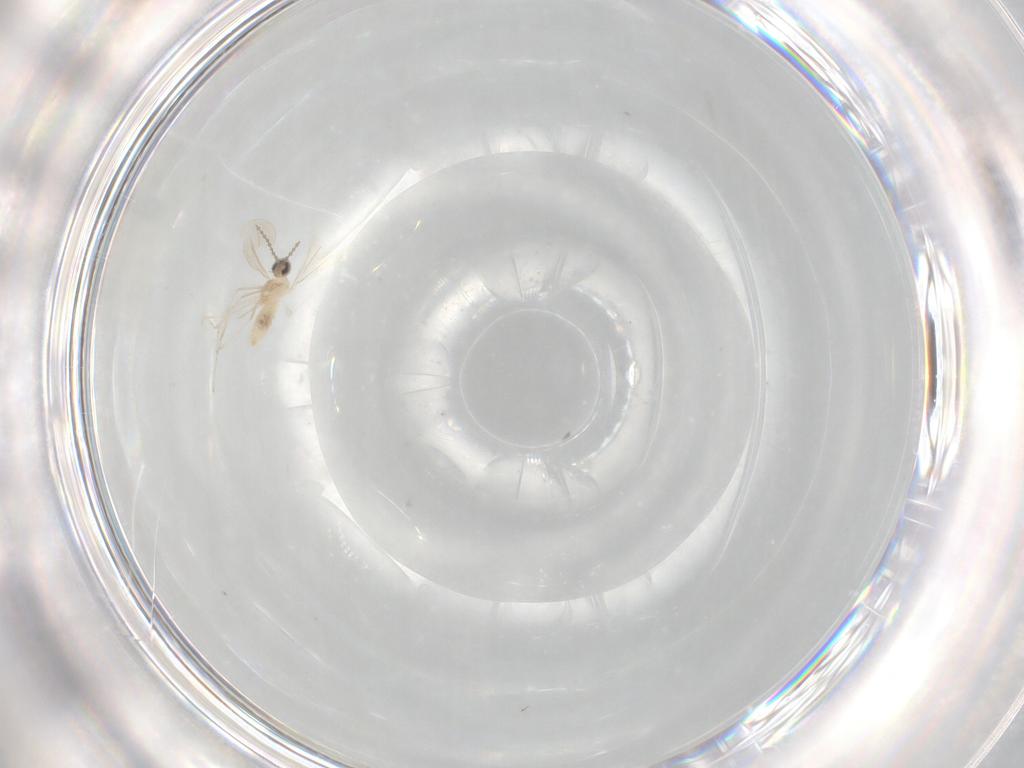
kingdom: Animalia
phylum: Arthropoda
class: Insecta
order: Diptera
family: Cecidomyiidae
